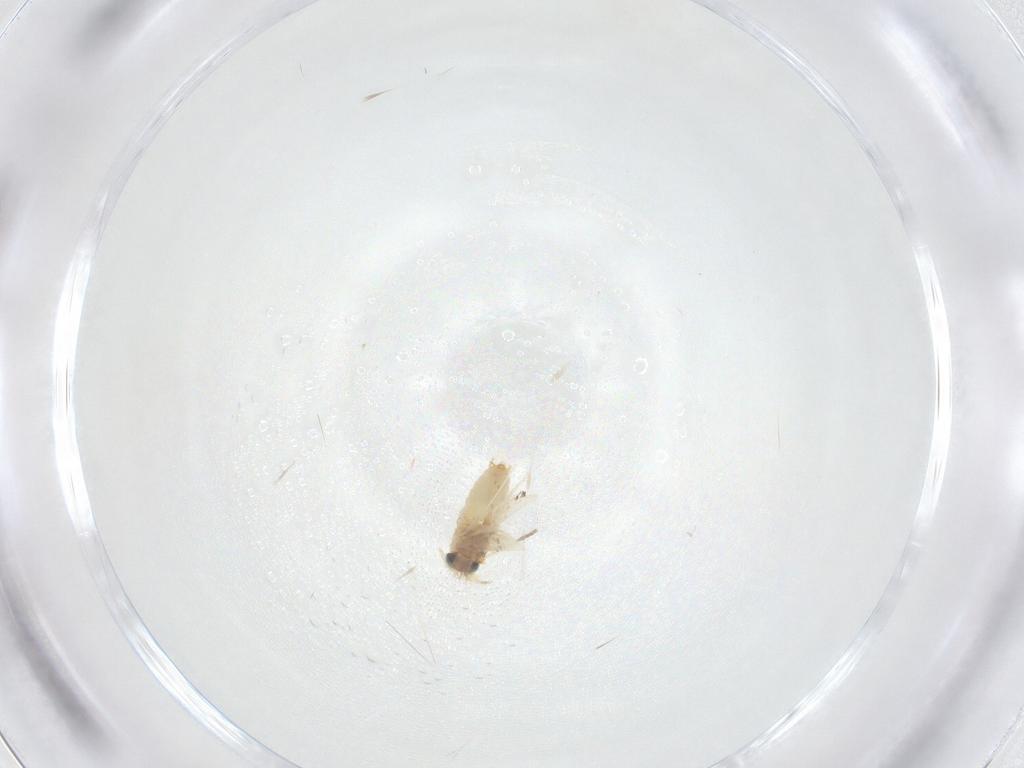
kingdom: Animalia
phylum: Arthropoda
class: Insecta
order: Lepidoptera
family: Crambidae
